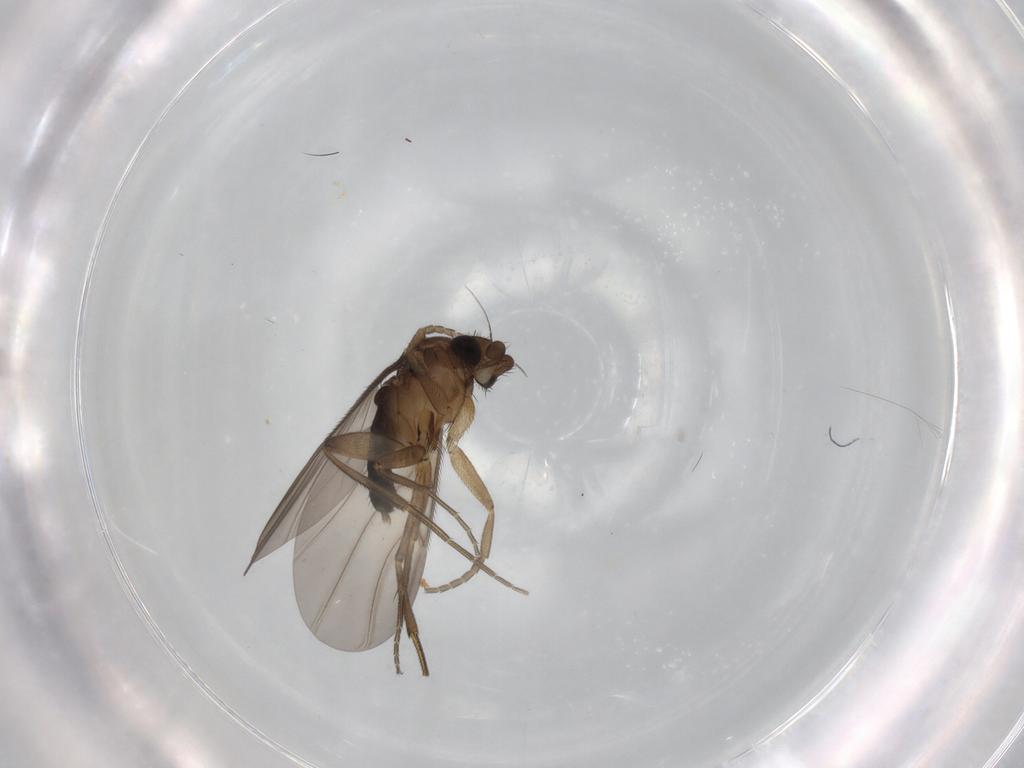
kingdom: Animalia
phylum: Arthropoda
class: Insecta
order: Diptera
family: Phoridae
